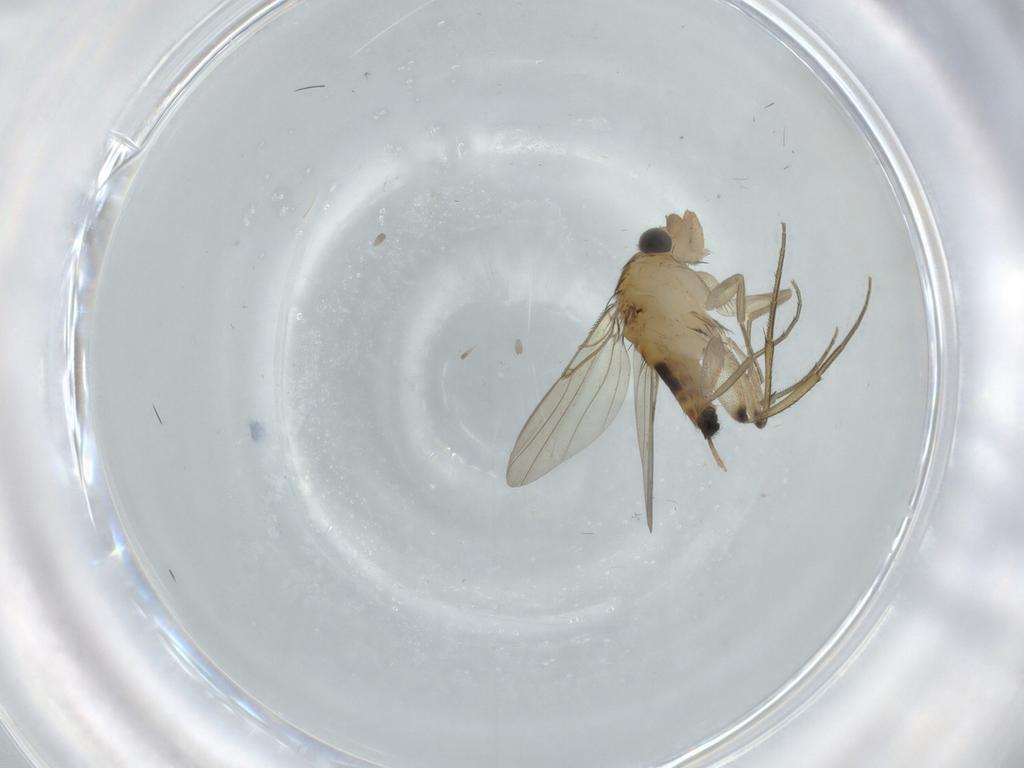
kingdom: Animalia
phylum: Arthropoda
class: Insecta
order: Diptera
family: Phoridae
